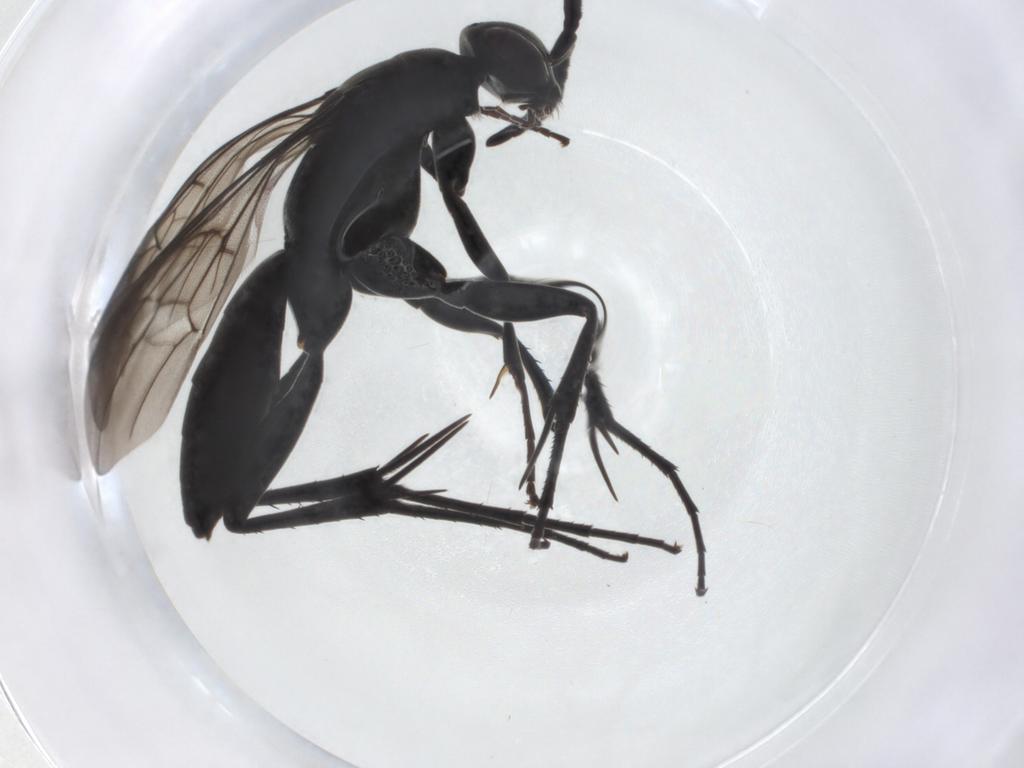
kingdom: Animalia
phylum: Arthropoda
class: Insecta
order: Hymenoptera
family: Pompilidae
